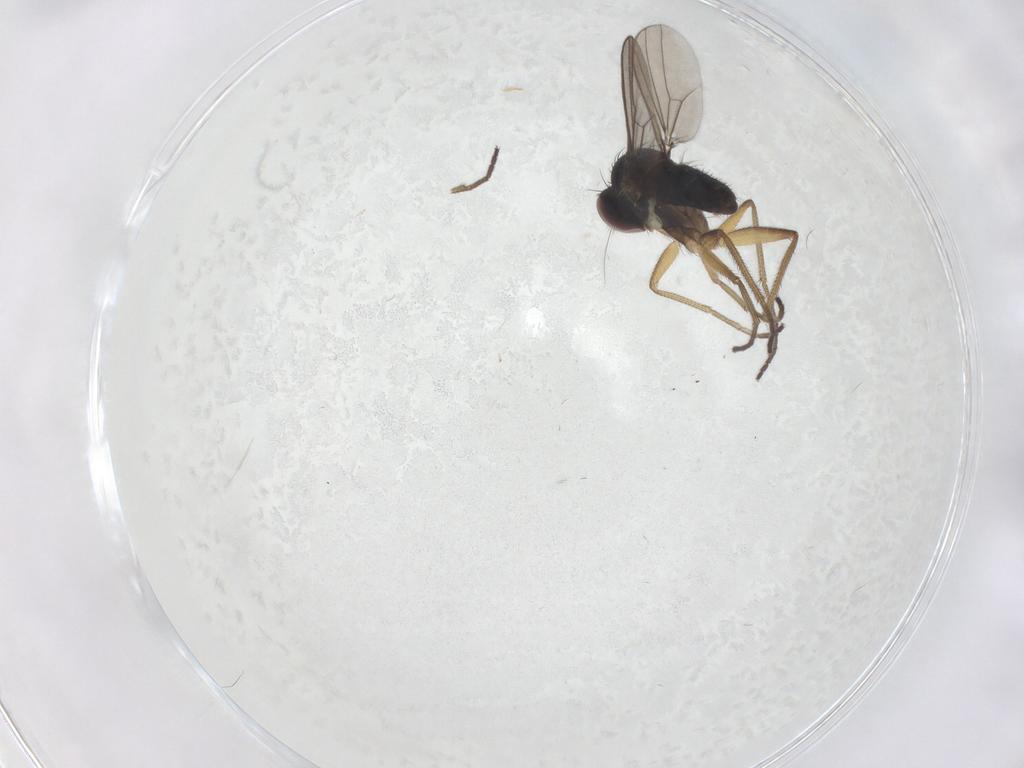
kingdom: Animalia
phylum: Arthropoda
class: Insecta
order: Diptera
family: Dolichopodidae
